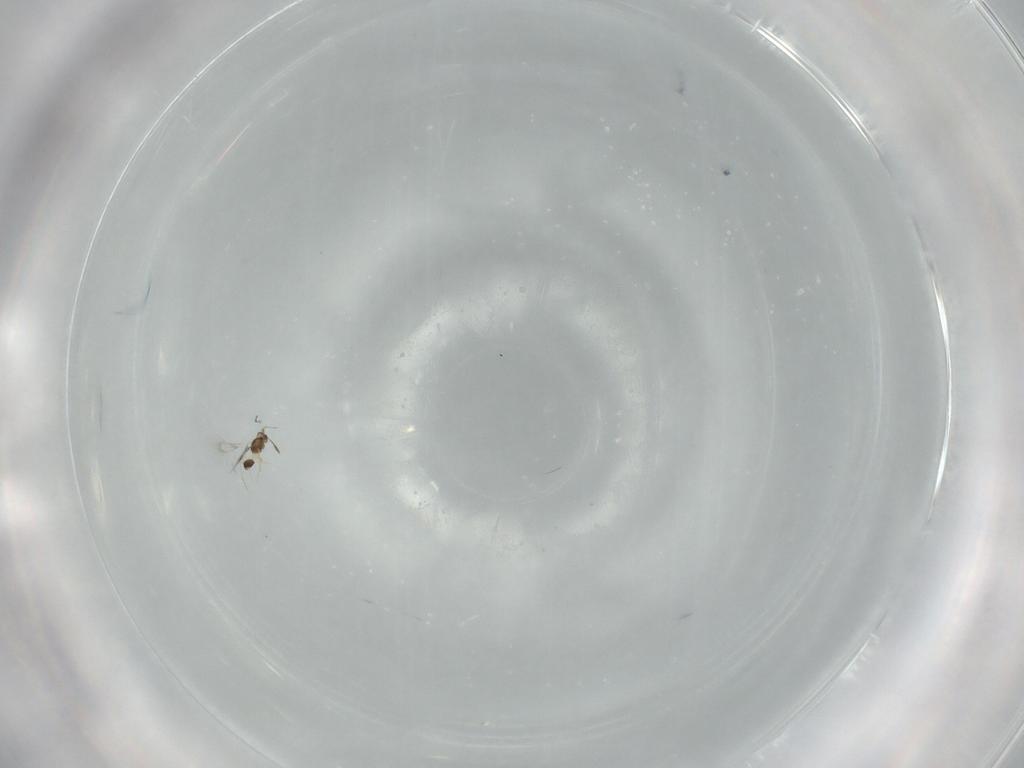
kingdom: Animalia
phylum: Arthropoda
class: Insecta
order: Hymenoptera
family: Mymarommatidae
